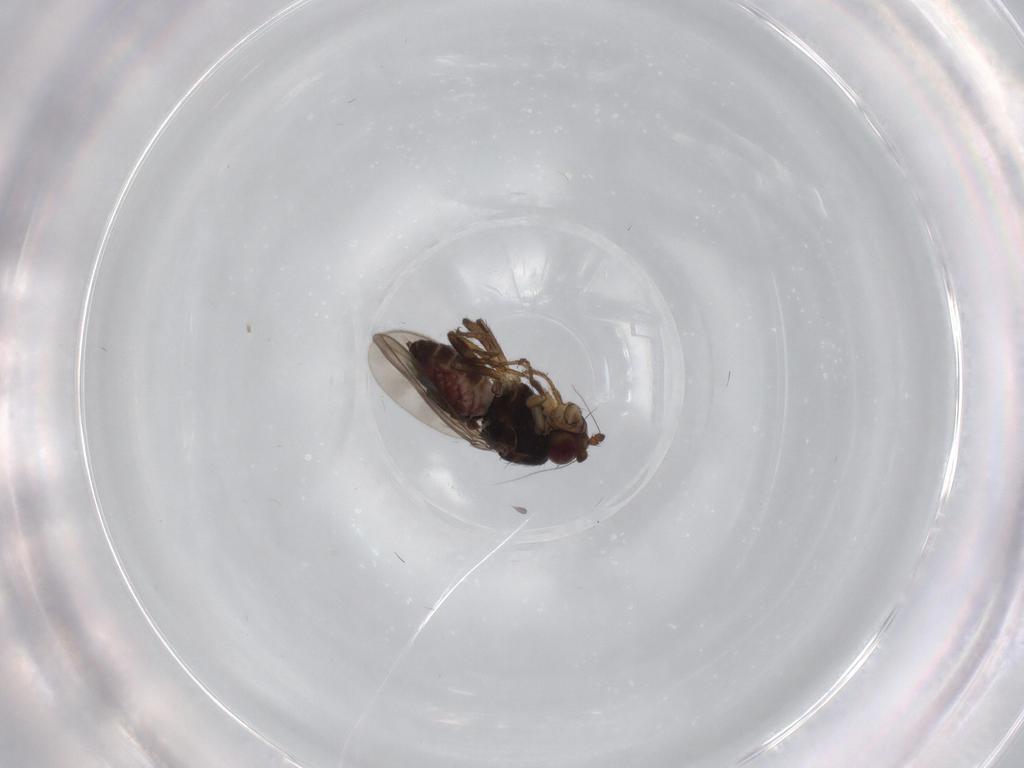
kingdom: Animalia
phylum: Arthropoda
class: Insecta
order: Diptera
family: Sphaeroceridae
